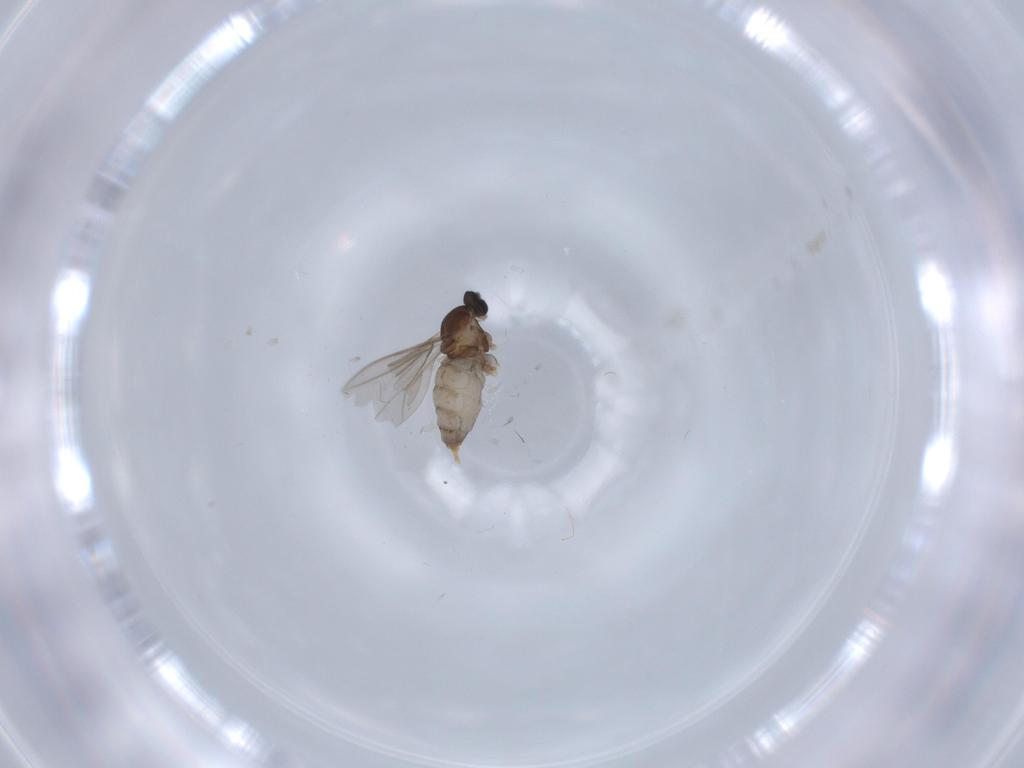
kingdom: Animalia
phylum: Arthropoda
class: Insecta
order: Diptera
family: Cecidomyiidae
